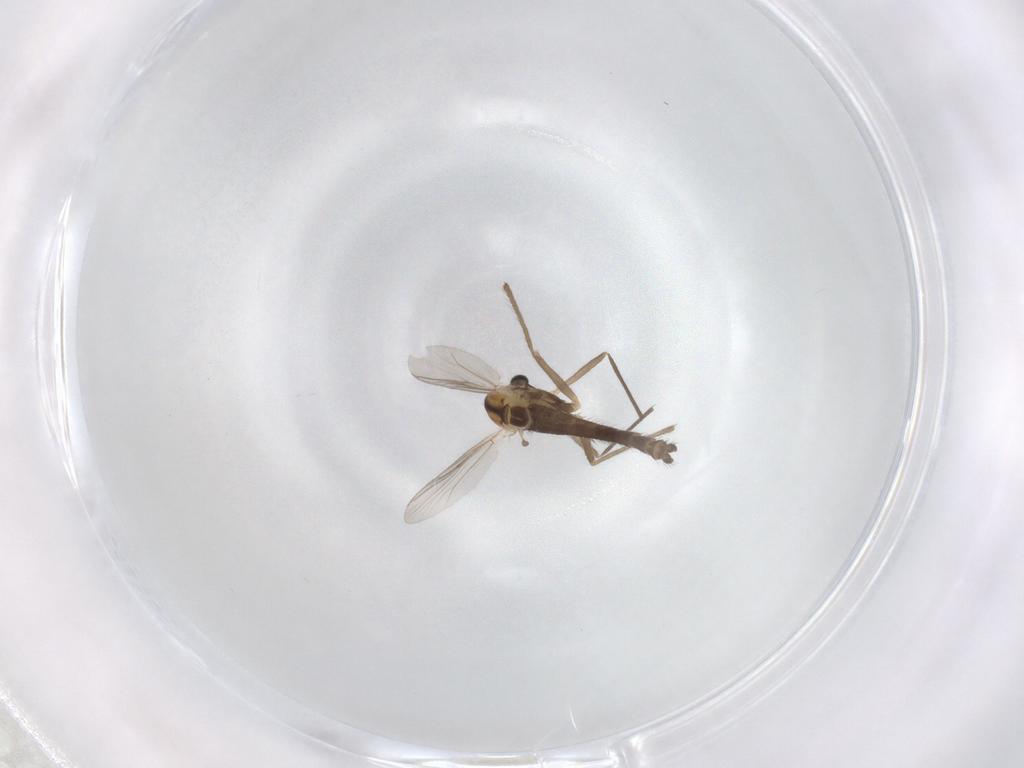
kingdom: Animalia
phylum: Arthropoda
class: Insecta
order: Diptera
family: Chironomidae
